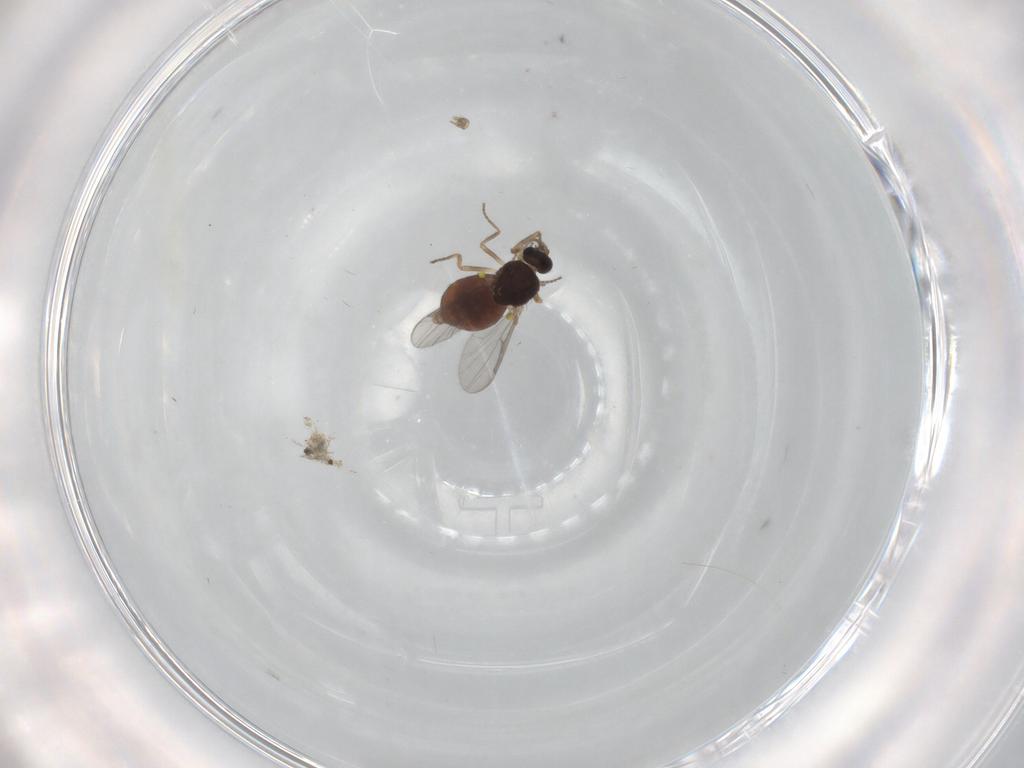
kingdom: Animalia
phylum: Arthropoda
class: Insecta
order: Diptera
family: Ceratopogonidae
